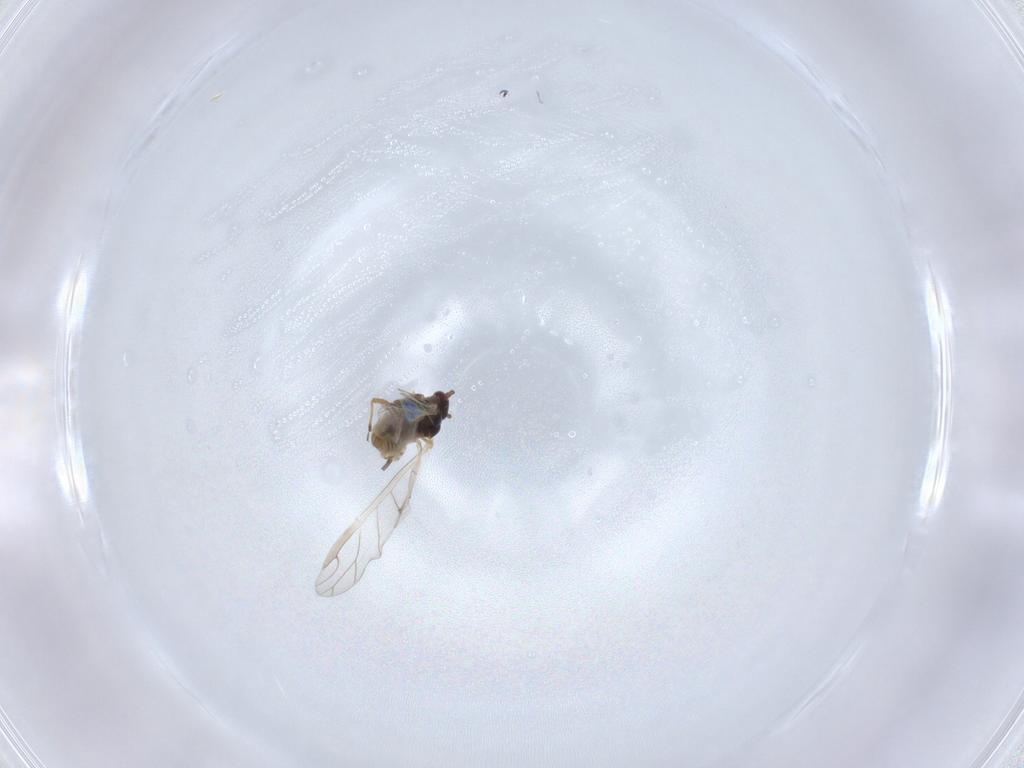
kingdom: Animalia
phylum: Arthropoda
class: Insecta
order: Hemiptera
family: Aphididae
